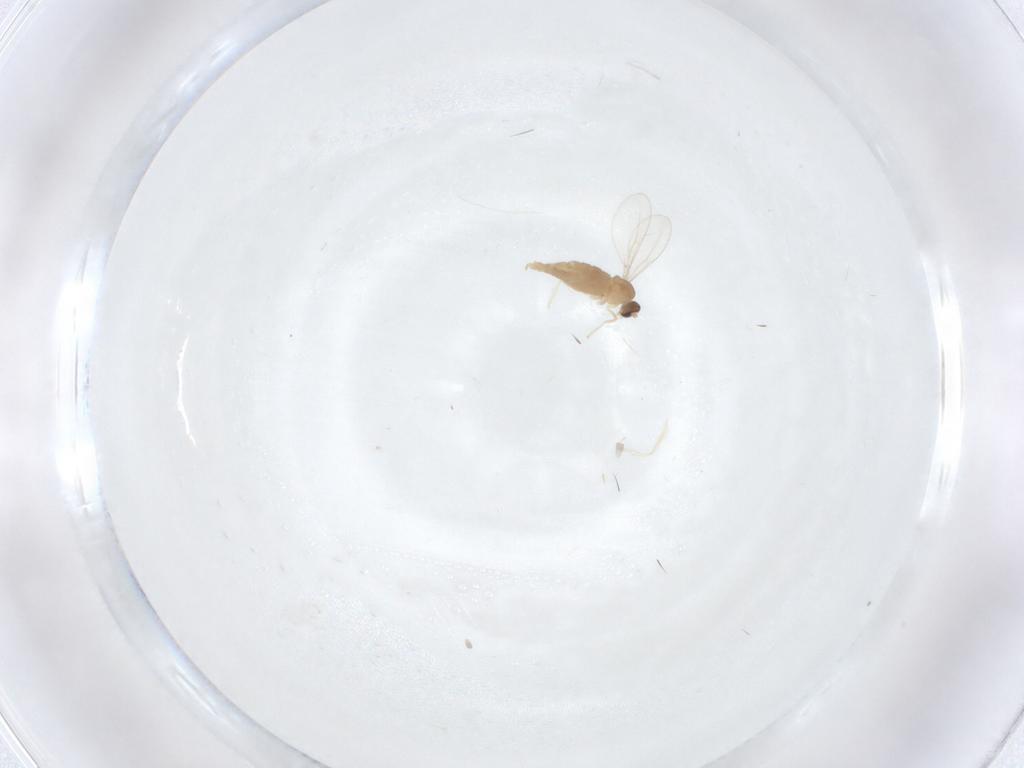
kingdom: Animalia
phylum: Arthropoda
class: Insecta
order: Diptera
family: Cecidomyiidae
